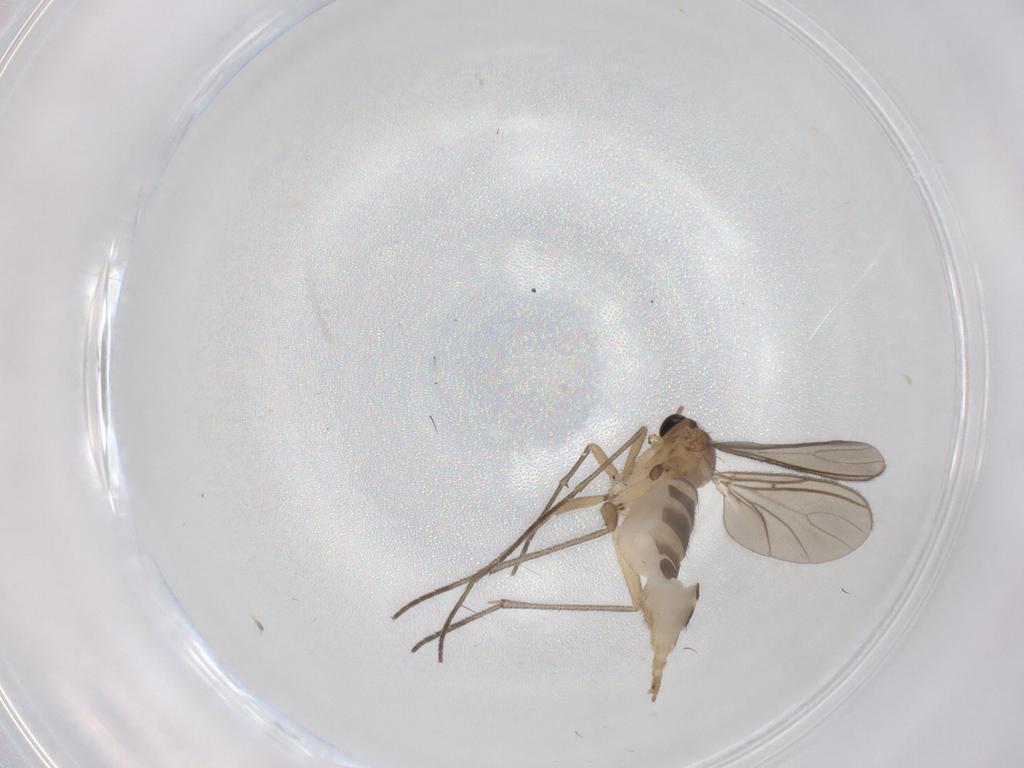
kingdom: Animalia
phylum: Arthropoda
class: Insecta
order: Diptera
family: Sciaridae
